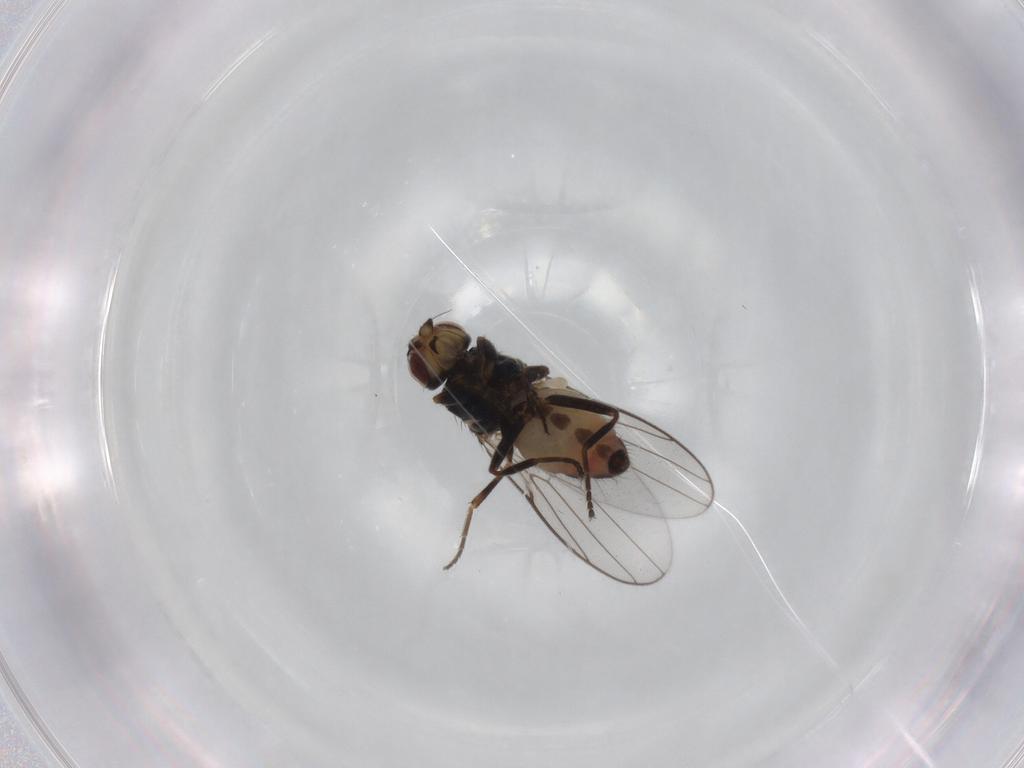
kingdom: Animalia
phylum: Arthropoda
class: Insecta
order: Diptera
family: Chloropidae
